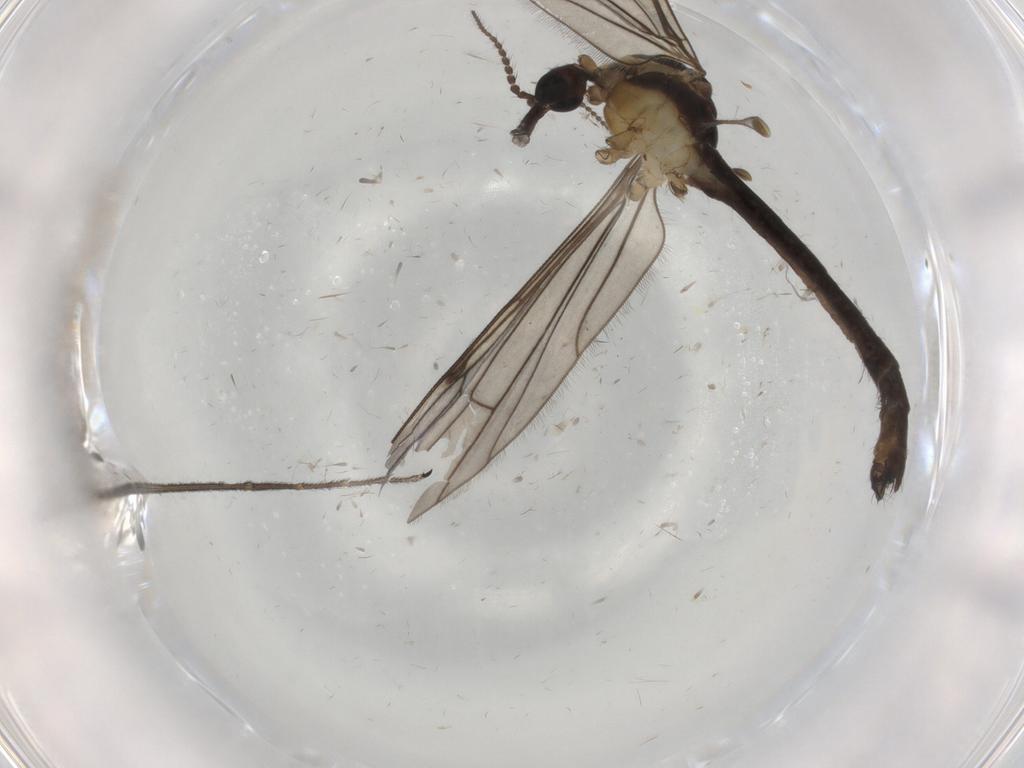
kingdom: Animalia
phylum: Arthropoda
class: Insecta
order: Diptera
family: Limoniidae
